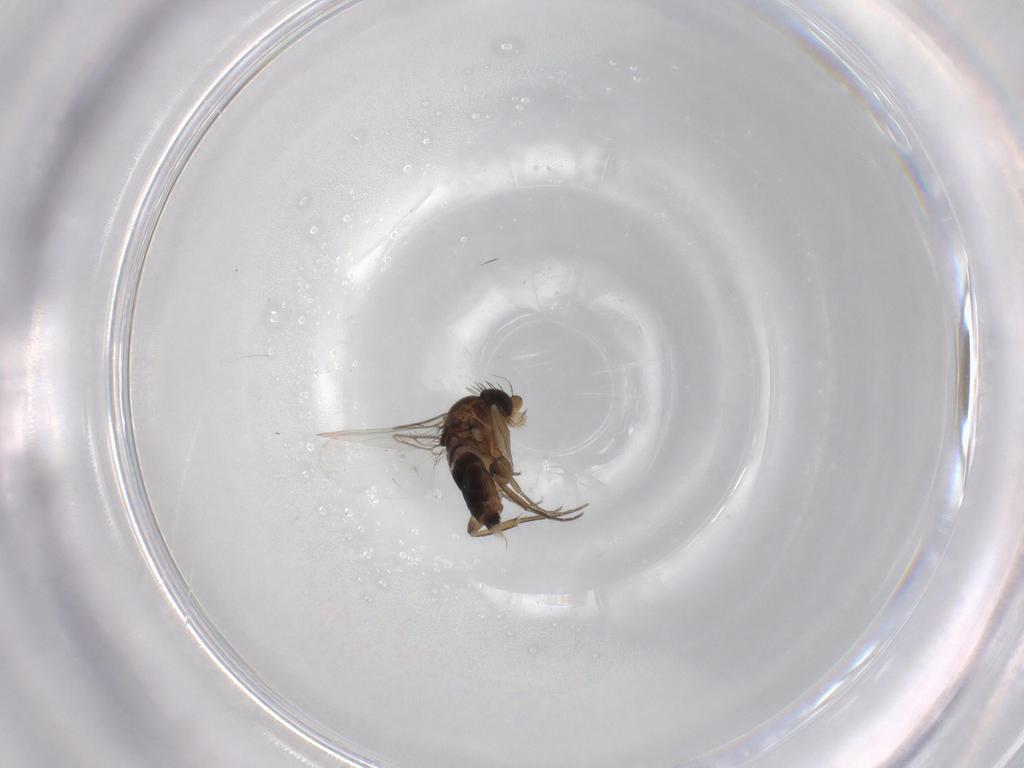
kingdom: Animalia
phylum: Arthropoda
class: Insecta
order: Diptera
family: Phoridae
